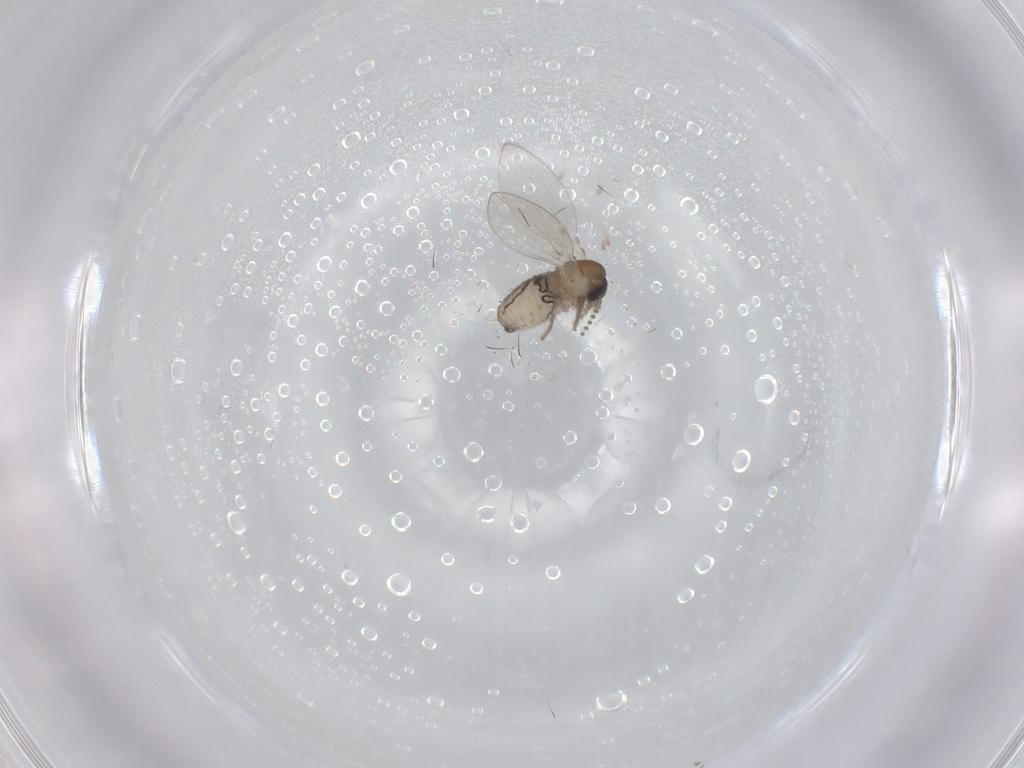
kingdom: Animalia
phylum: Arthropoda
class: Insecta
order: Diptera
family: Psychodidae
